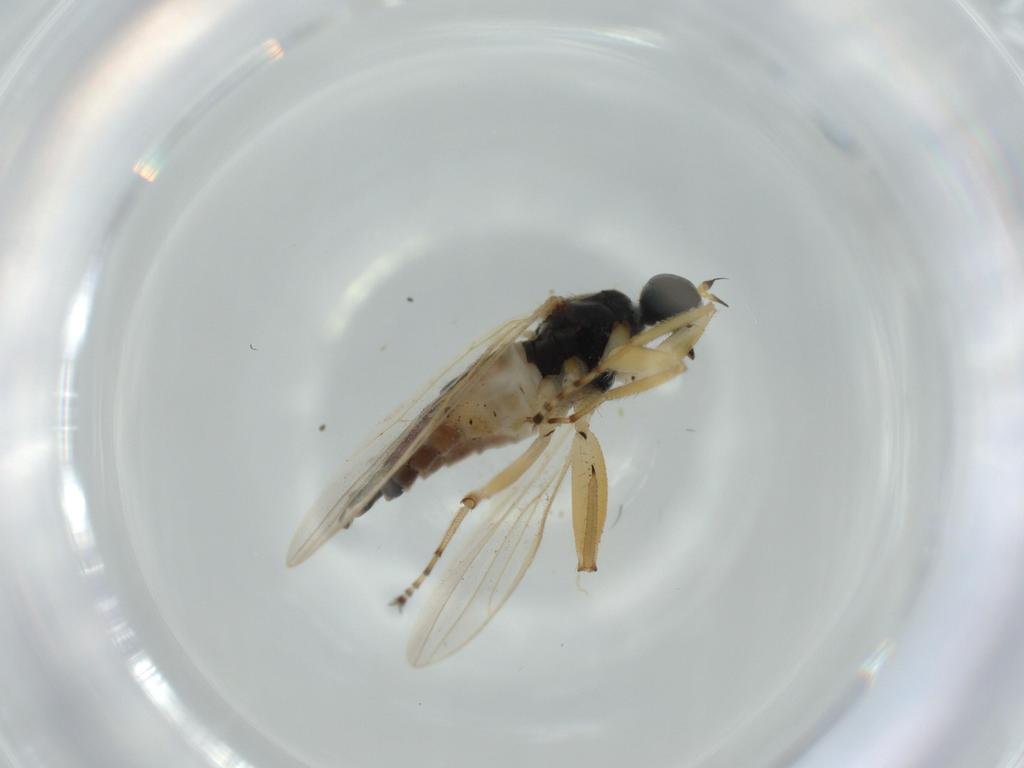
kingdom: Animalia
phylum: Arthropoda
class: Insecta
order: Diptera
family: Hybotidae
